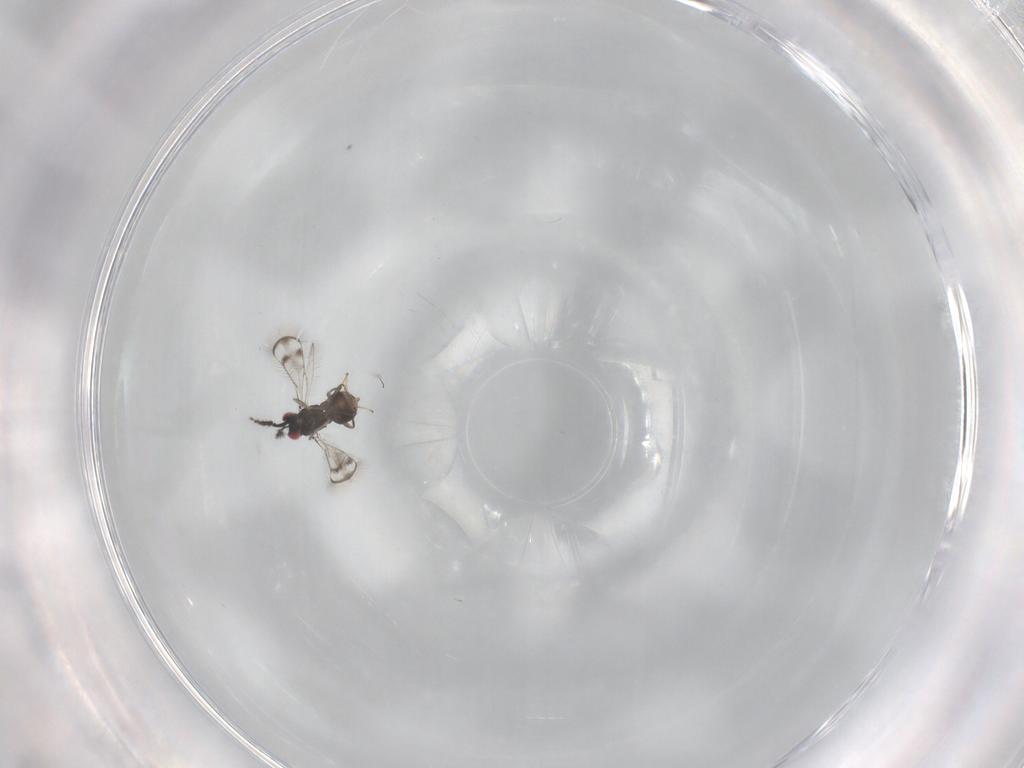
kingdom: Animalia
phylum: Arthropoda
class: Insecta
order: Hymenoptera
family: Eulophidae
